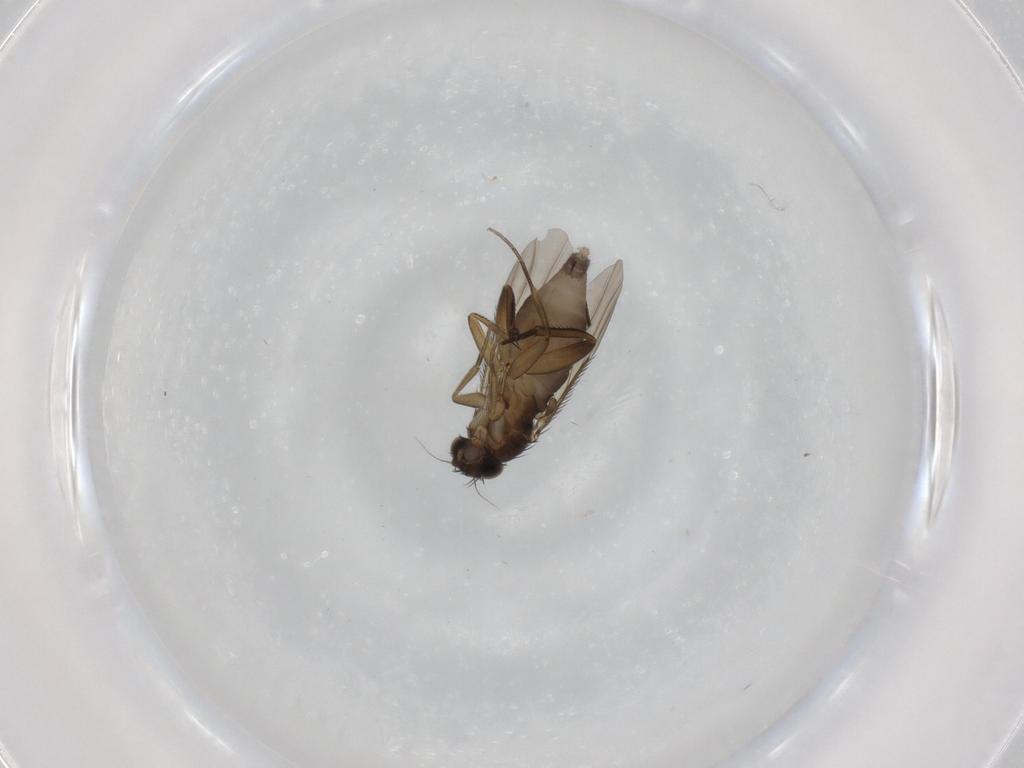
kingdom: Animalia
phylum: Arthropoda
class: Insecta
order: Diptera
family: Phoridae
